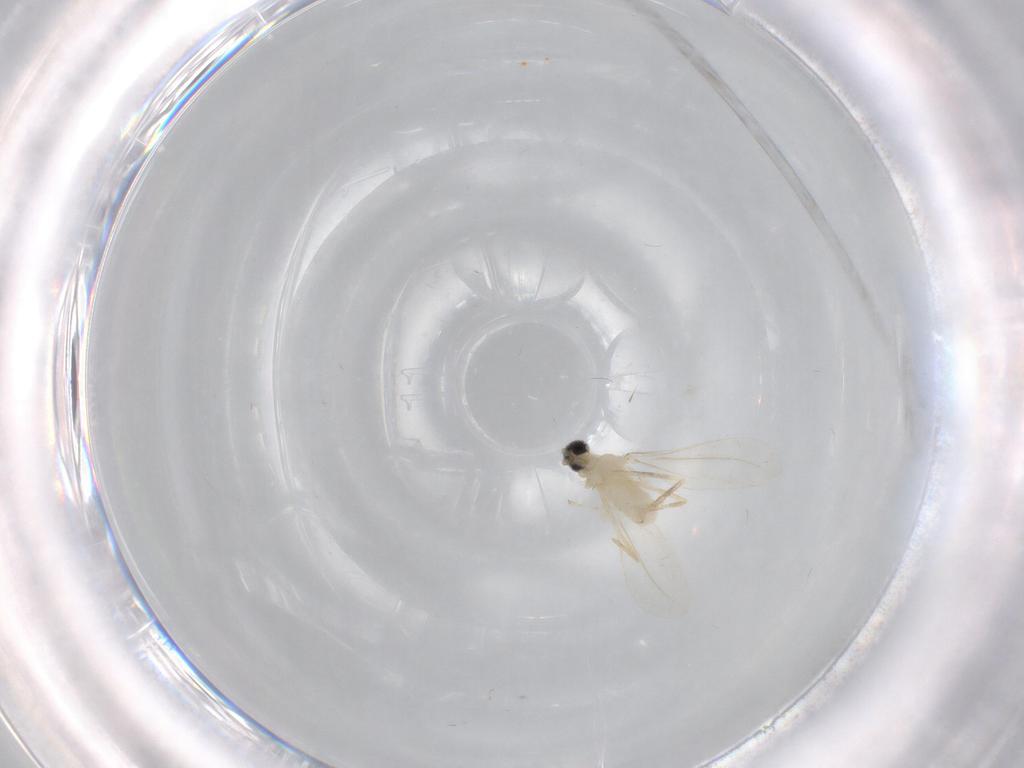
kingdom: Animalia
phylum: Arthropoda
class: Insecta
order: Diptera
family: Cecidomyiidae
